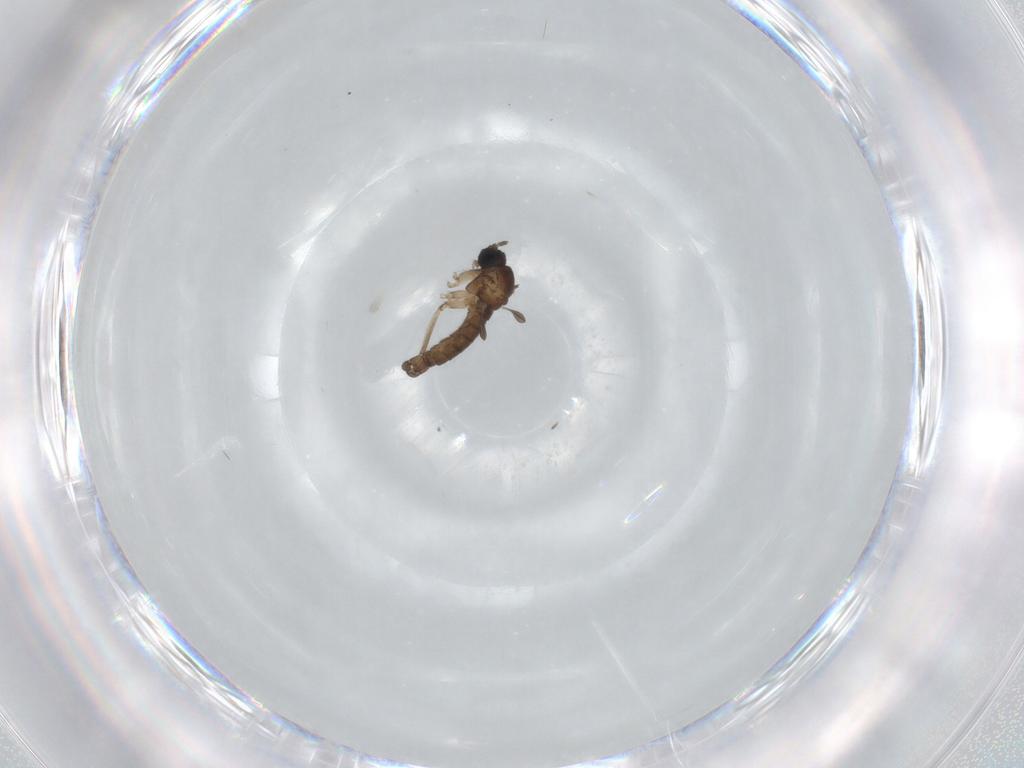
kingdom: Animalia
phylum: Arthropoda
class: Insecta
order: Diptera
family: Sciaridae
